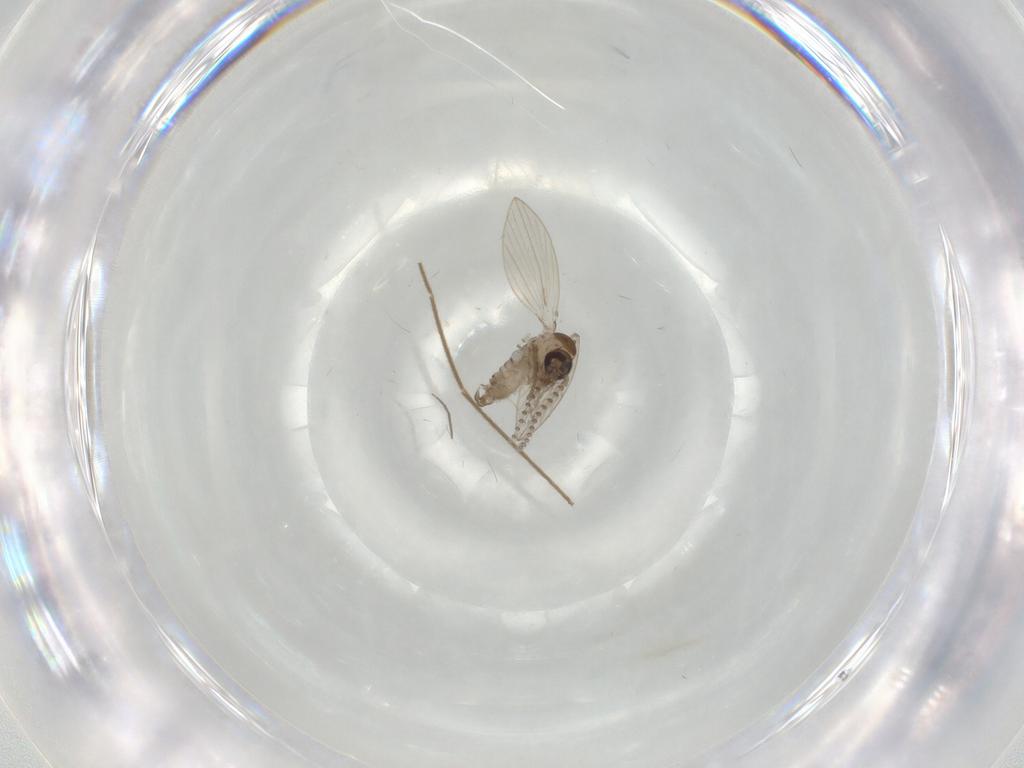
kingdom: Animalia
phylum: Arthropoda
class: Insecta
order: Diptera
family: Psychodidae
